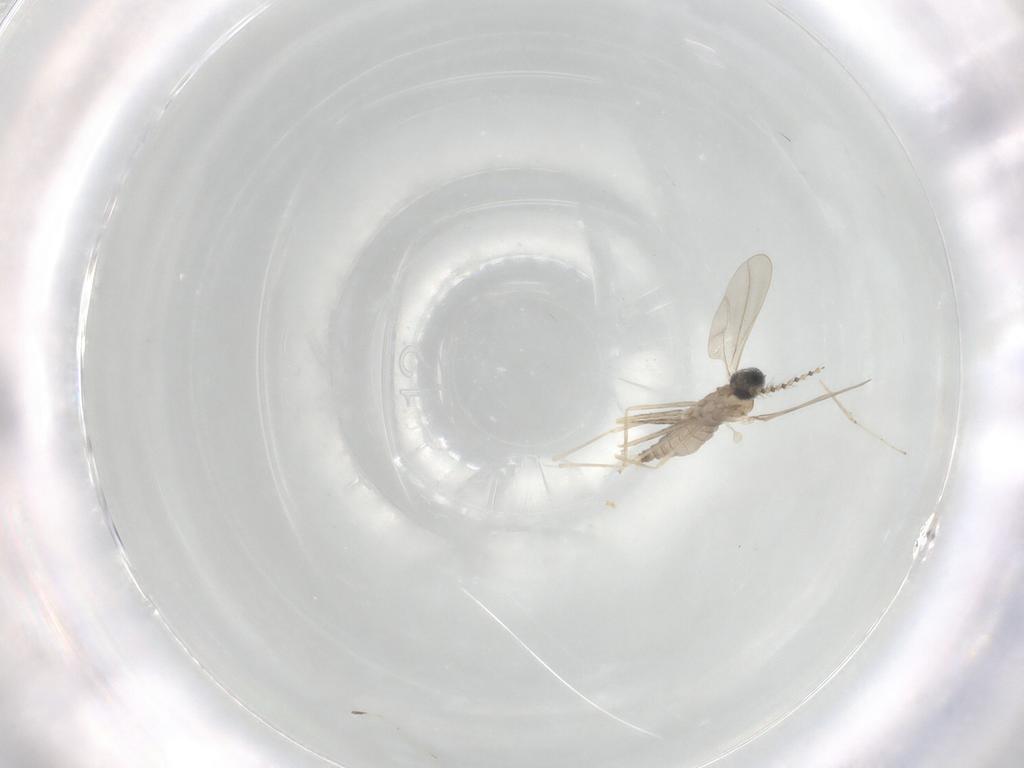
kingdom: Animalia
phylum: Arthropoda
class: Insecta
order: Diptera
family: Cecidomyiidae
